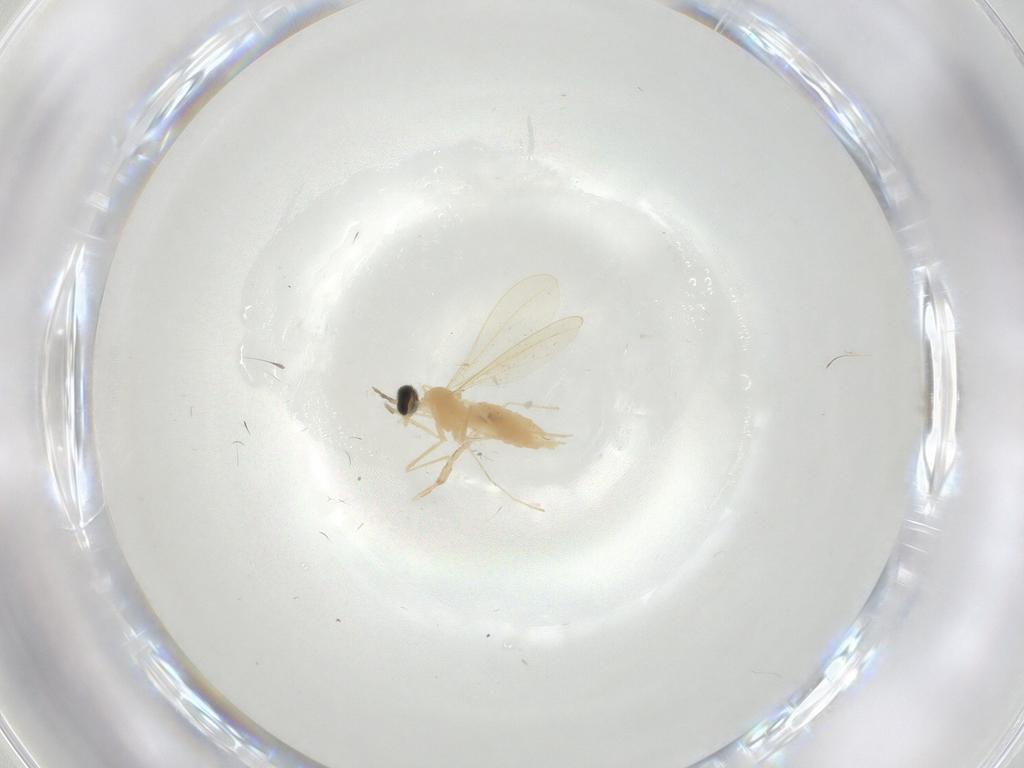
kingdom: Animalia
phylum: Arthropoda
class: Insecta
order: Diptera
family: Cecidomyiidae
